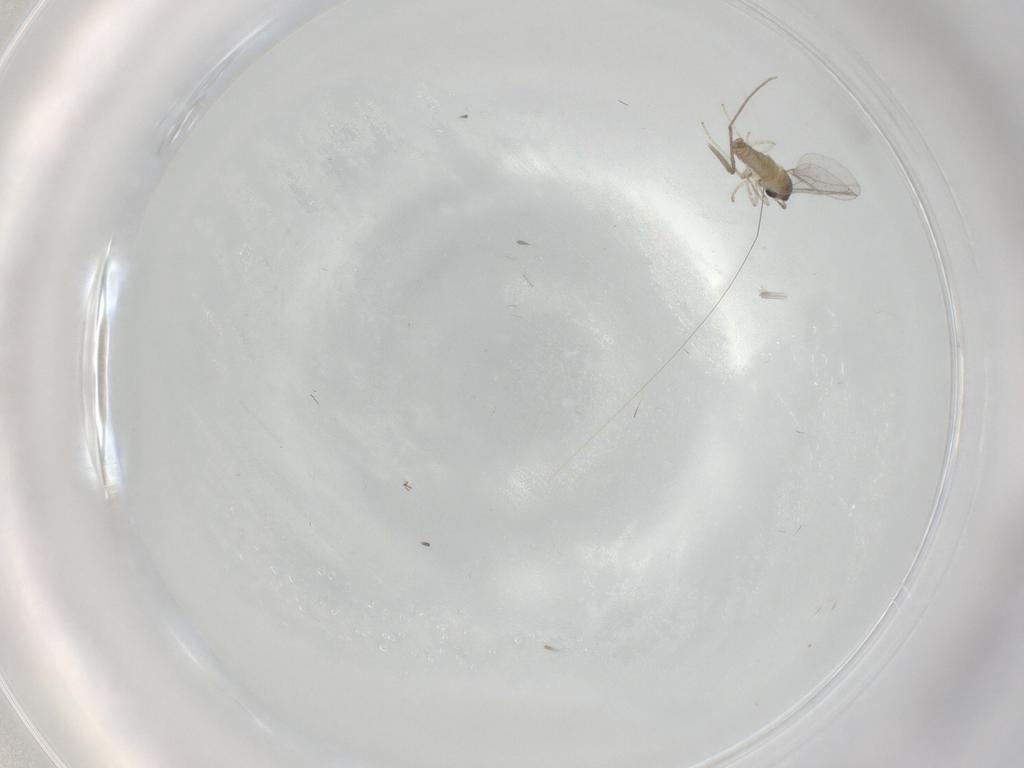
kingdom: Animalia
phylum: Arthropoda
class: Insecta
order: Diptera
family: Cecidomyiidae
